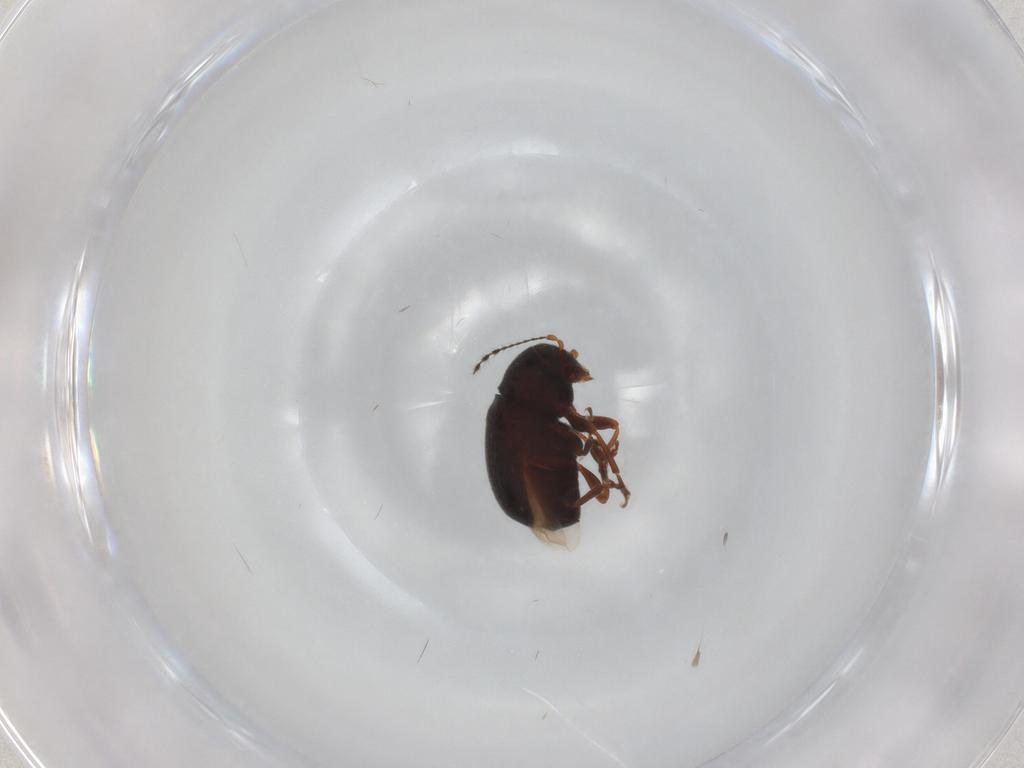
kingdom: Animalia
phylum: Arthropoda
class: Insecta
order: Coleoptera
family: Anthribidae
